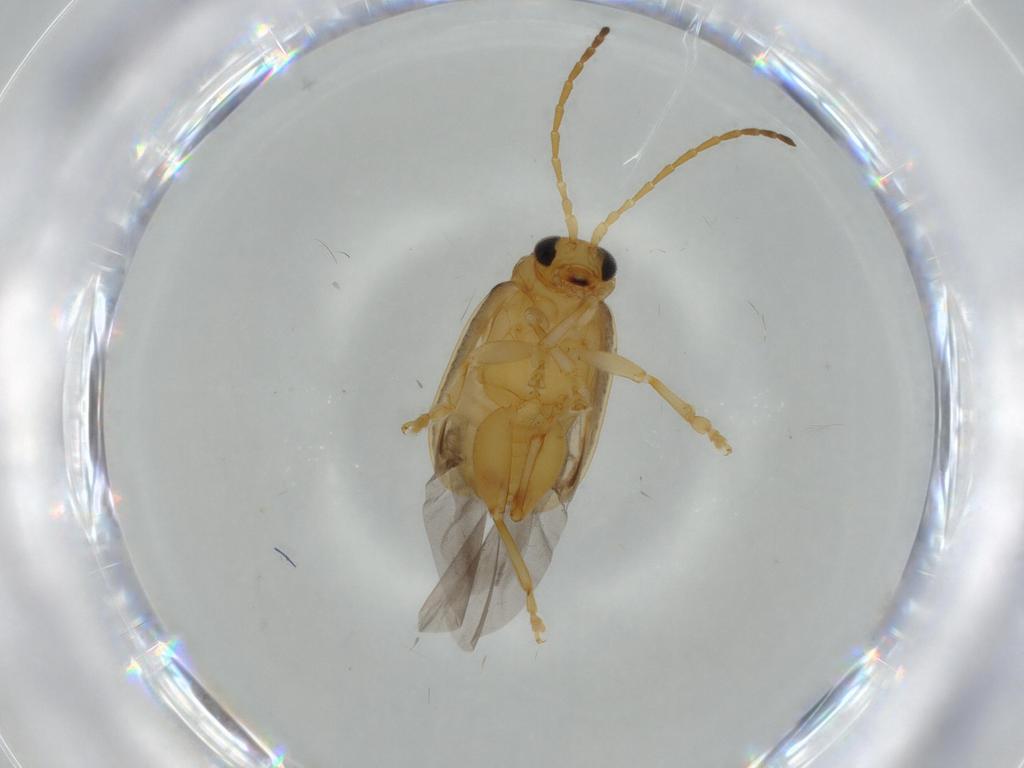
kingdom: Animalia
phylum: Arthropoda
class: Insecta
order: Coleoptera
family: Chrysomelidae
